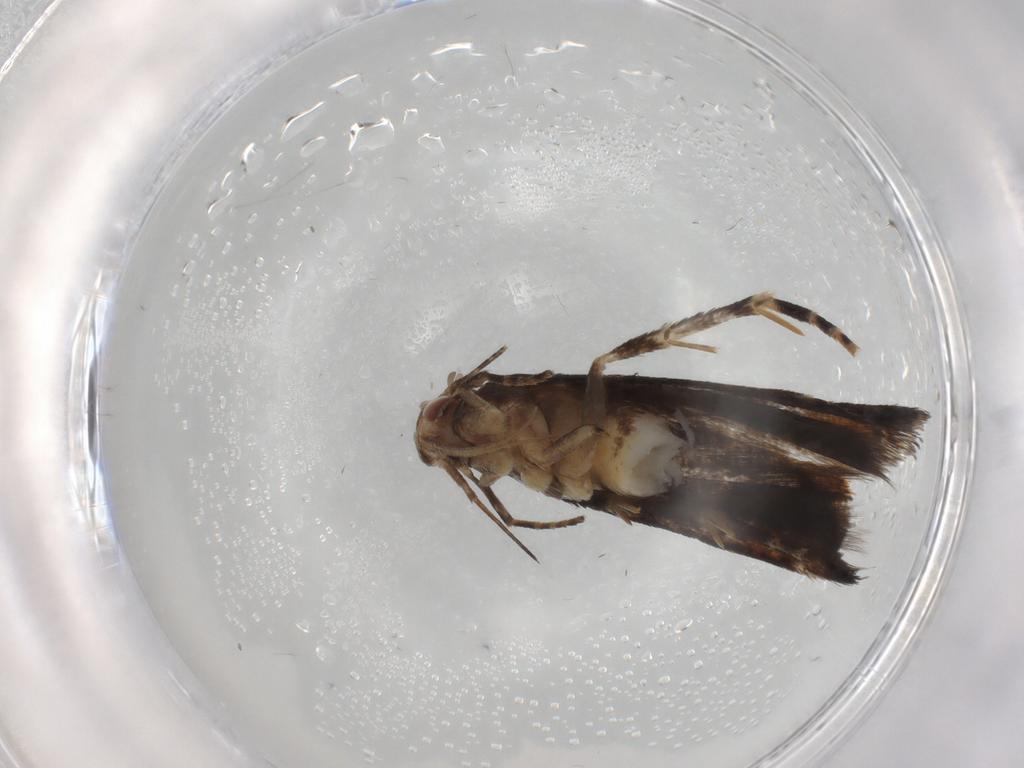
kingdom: Animalia
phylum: Arthropoda
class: Insecta
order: Lepidoptera
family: Gelechiidae
